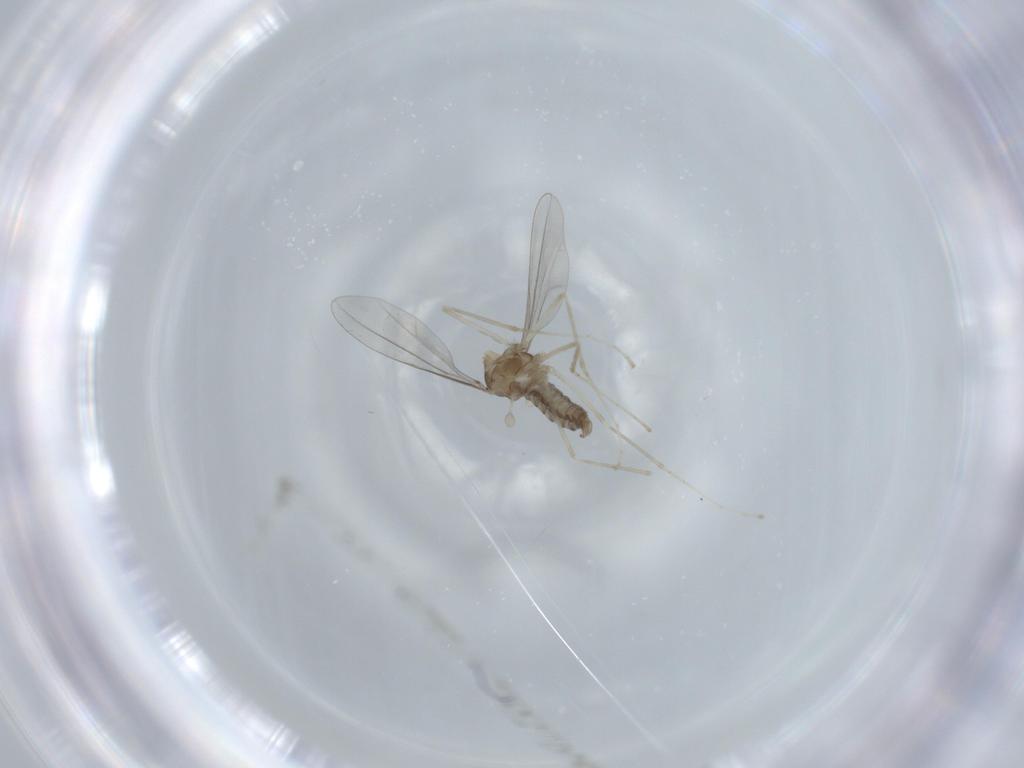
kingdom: Animalia
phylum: Arthropoda
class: Insecta
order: Diptera
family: Cecidomyiidae
